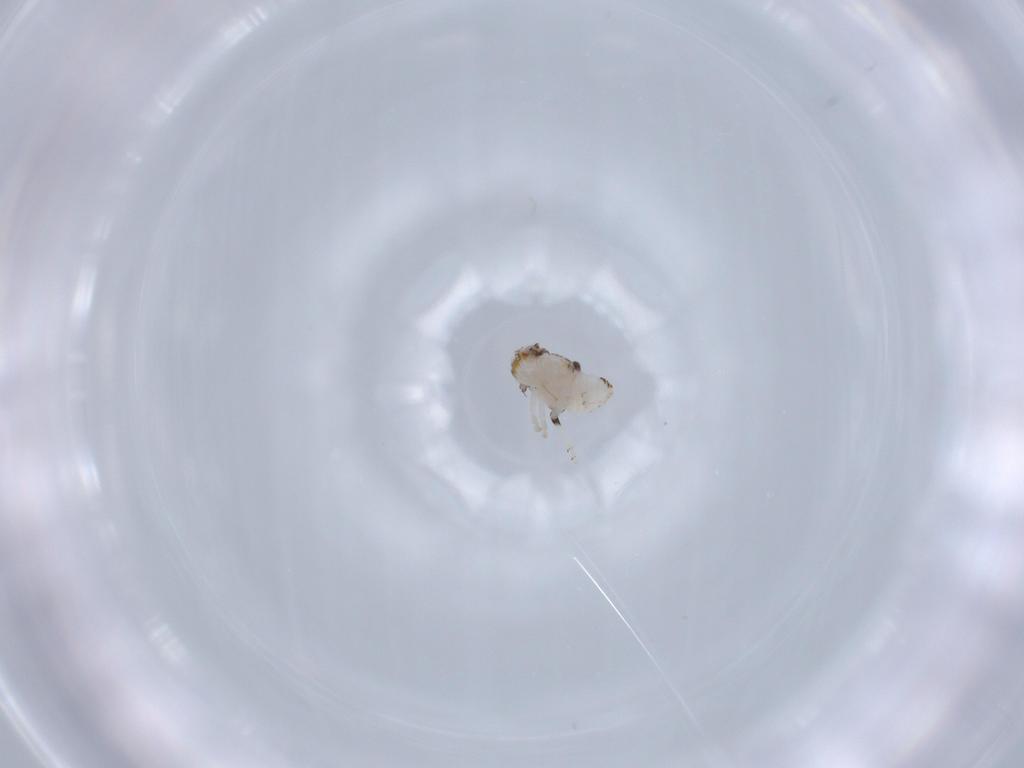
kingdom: Animalia
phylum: Arthropoda
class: Insecta
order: Hemiptera
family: Nogodinidae
